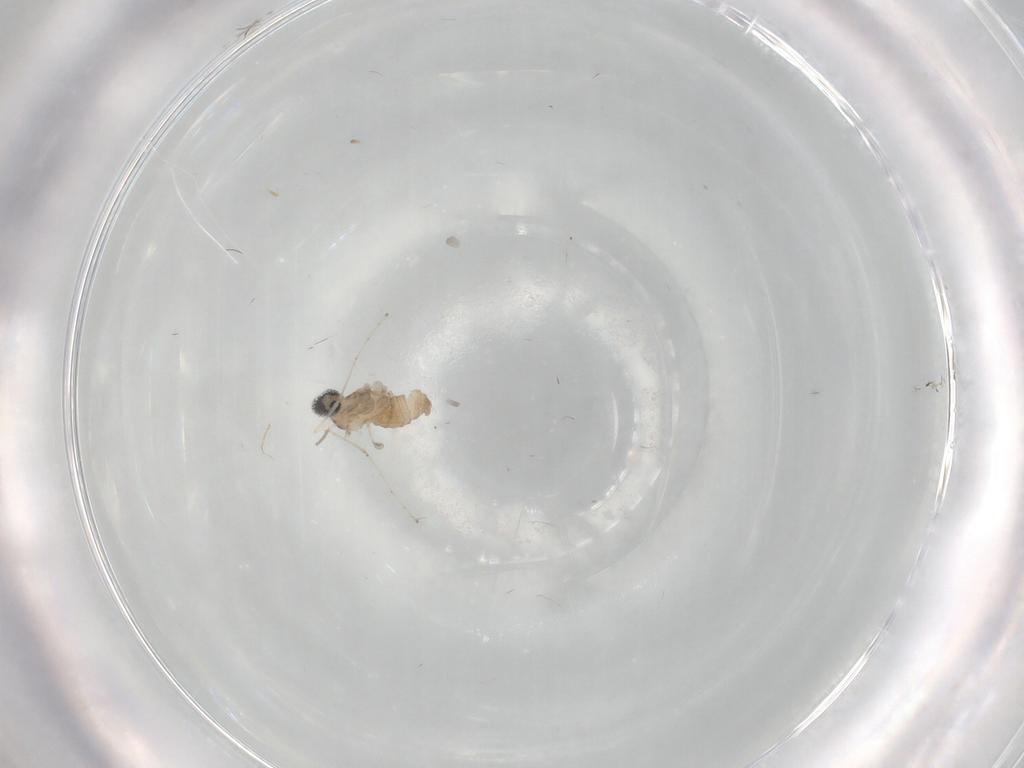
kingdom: Animalia
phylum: Arthropoda
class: Insecta
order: Diptera
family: Cecidomyiidae
